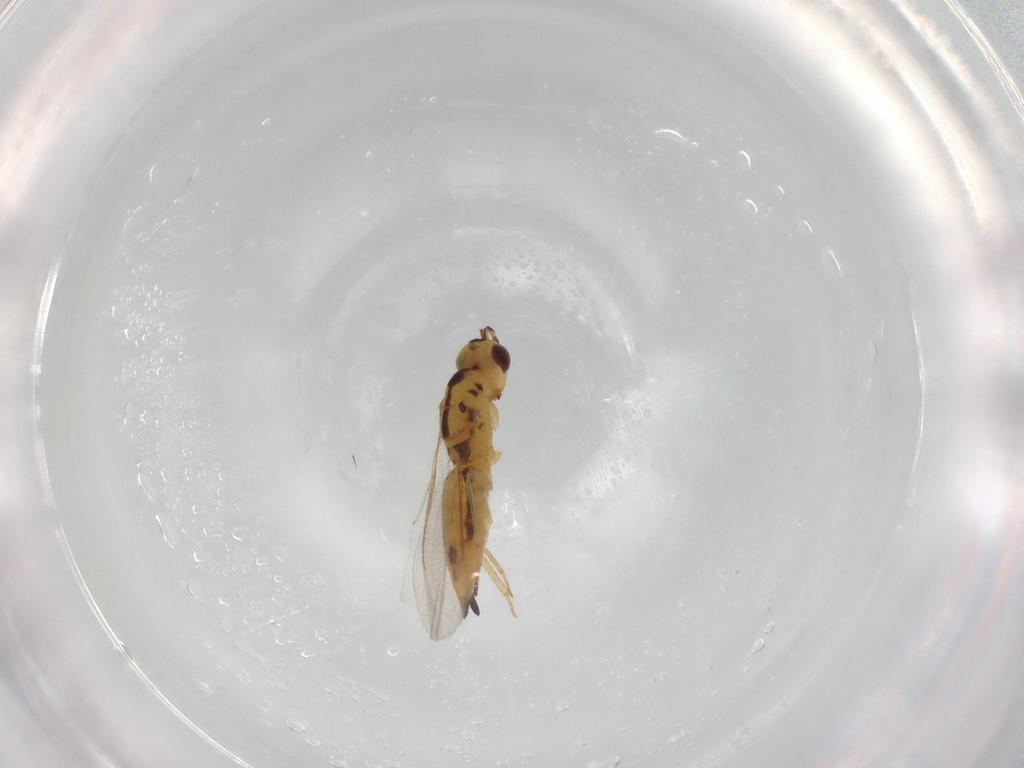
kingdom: Animalia
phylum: Arthropoda
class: Insecta
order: Hymenoptera
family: Eulophidae
